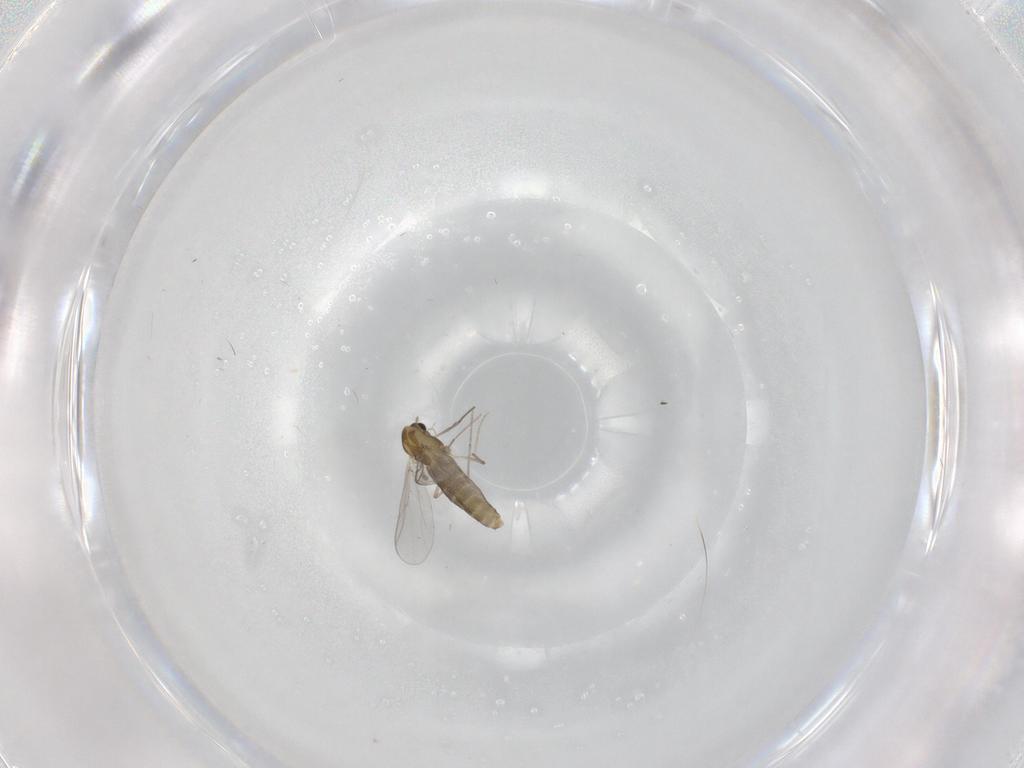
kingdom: Animalia
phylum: Arthropoda
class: Insecta
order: Diptera
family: Chironomidae
